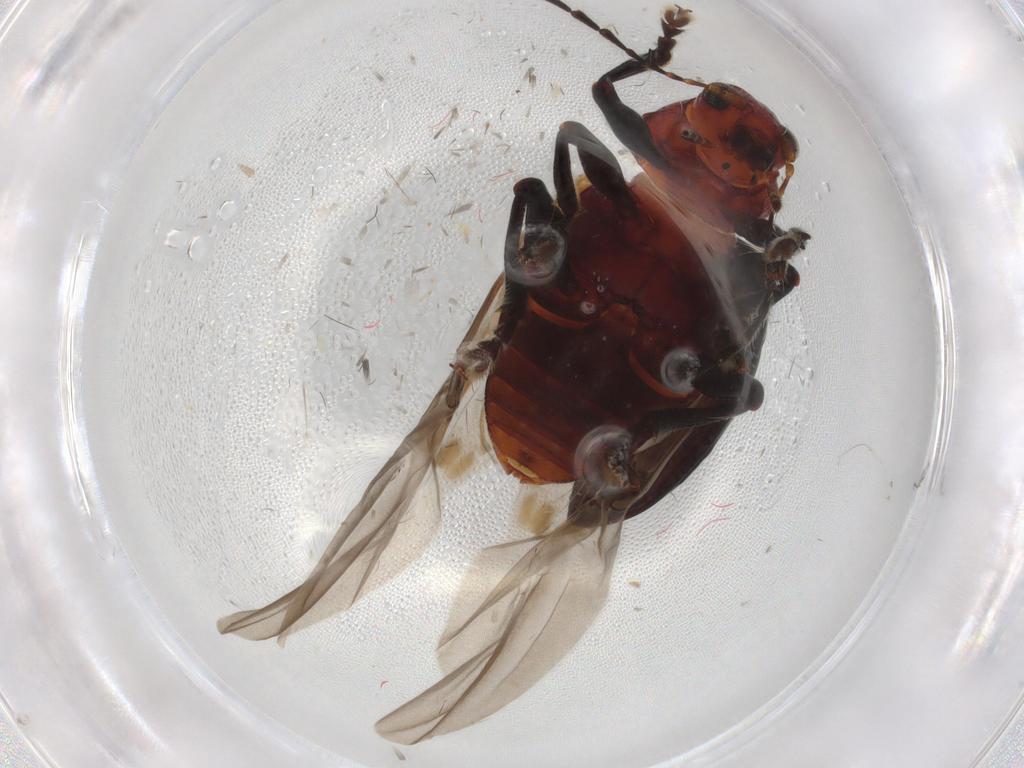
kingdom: Animalia
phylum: Arthropoda
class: Insecta
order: Coleoptera
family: Chrysomelidae
